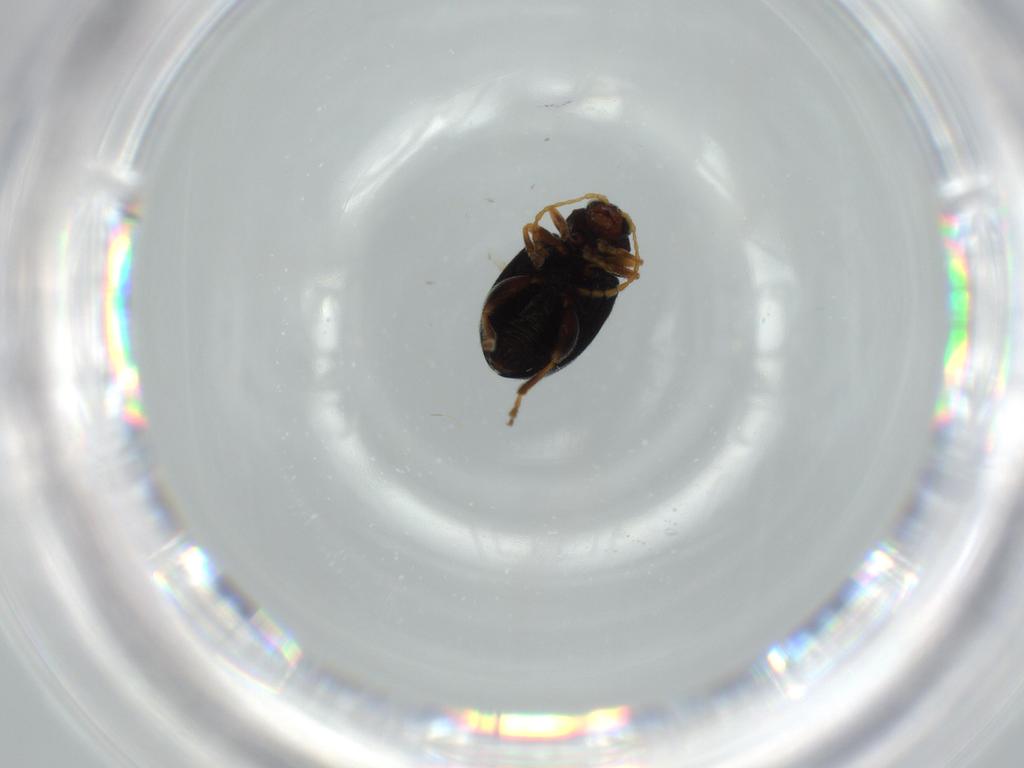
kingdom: Animalia
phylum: Arthropoda
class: Insecta
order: Coleoptera
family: Chrysomelidae
